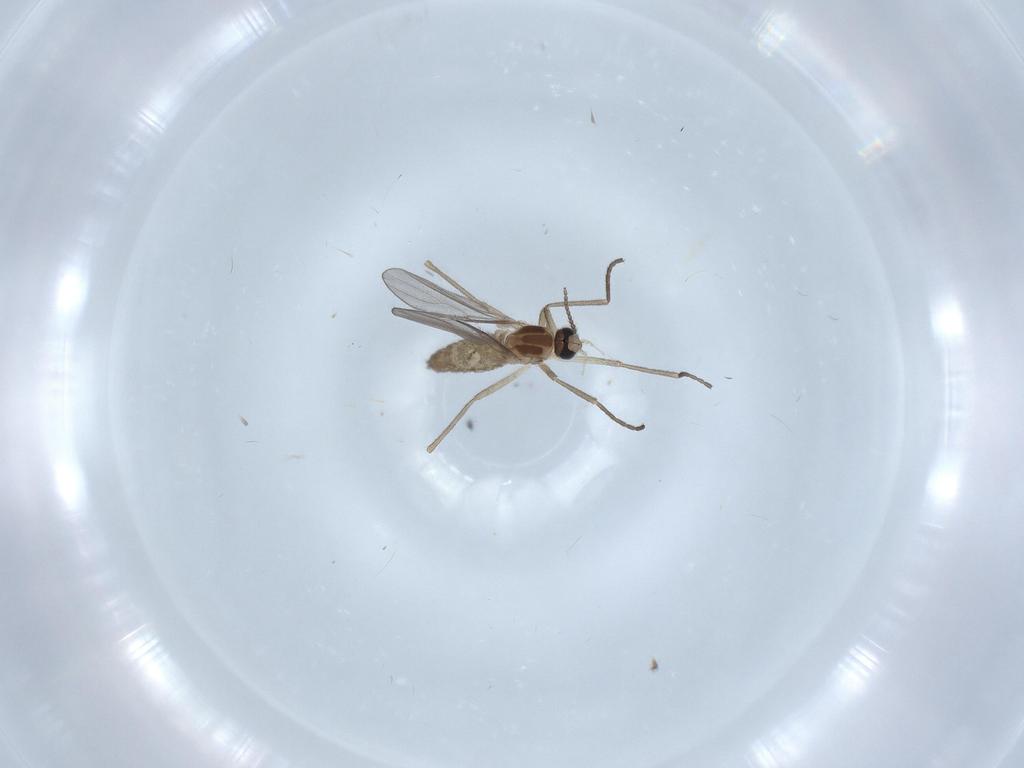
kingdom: Animalia
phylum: Arthropoda
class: Insecta
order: Diptera
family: Cecidomyiidae
